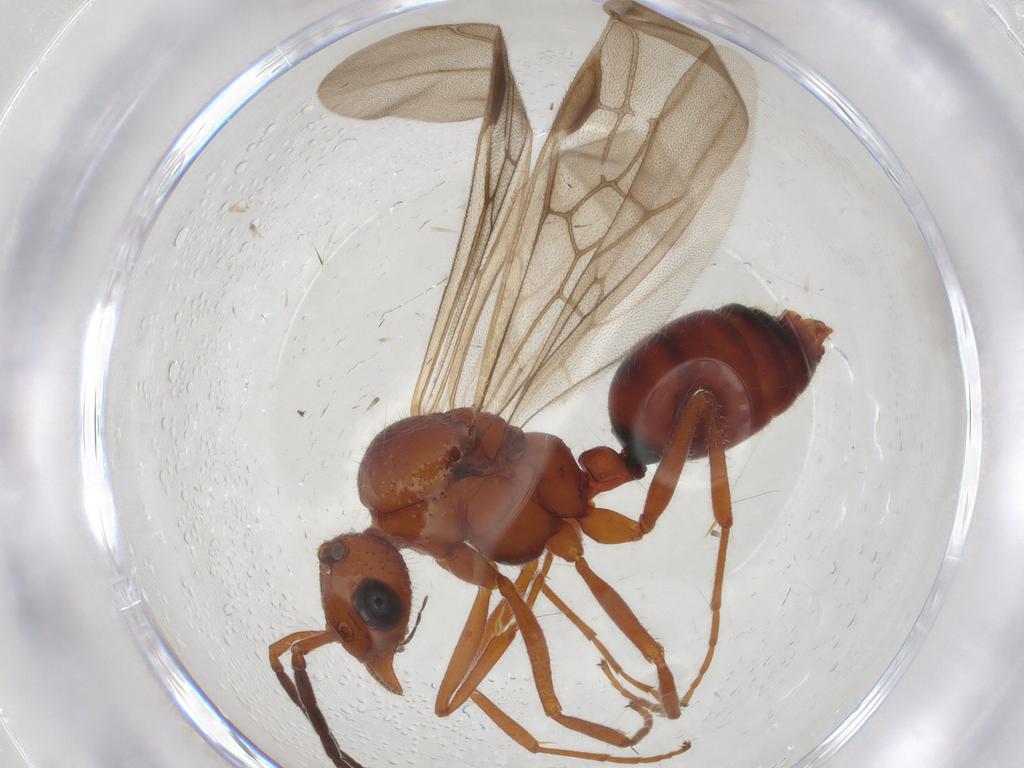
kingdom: Animalia
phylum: Arthropoda
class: Insecta
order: Hymenoptera
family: Formicidae
